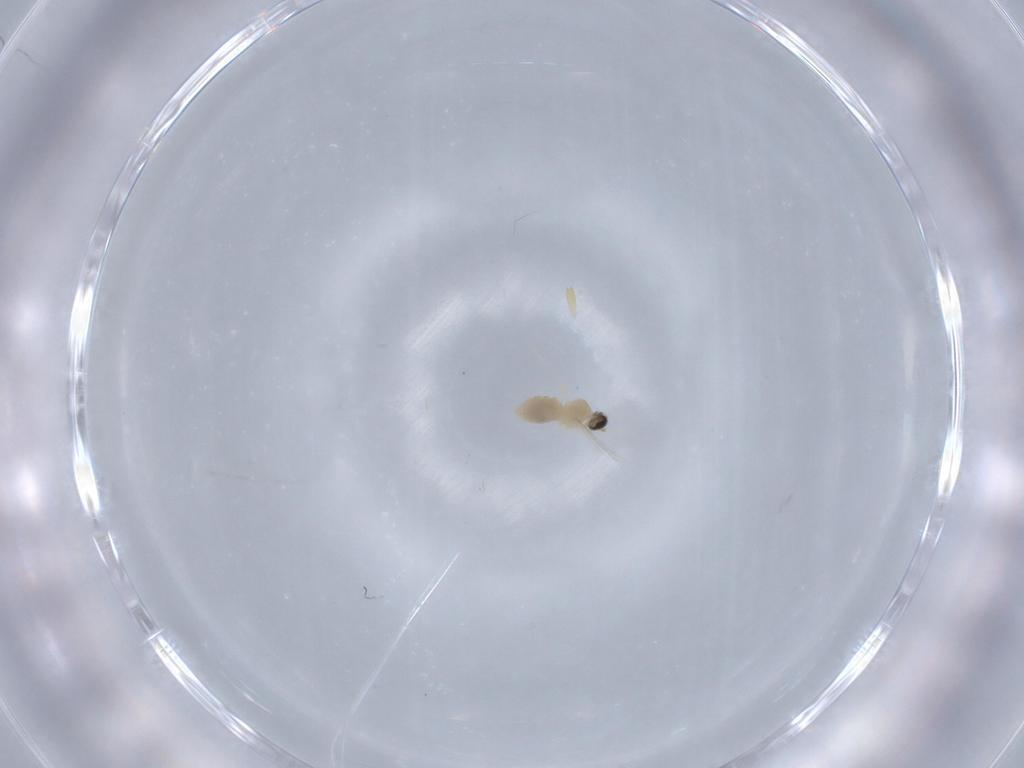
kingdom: Animalia
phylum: Arthropoda
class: Insecta
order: Diptera
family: Cecidomyiidae
